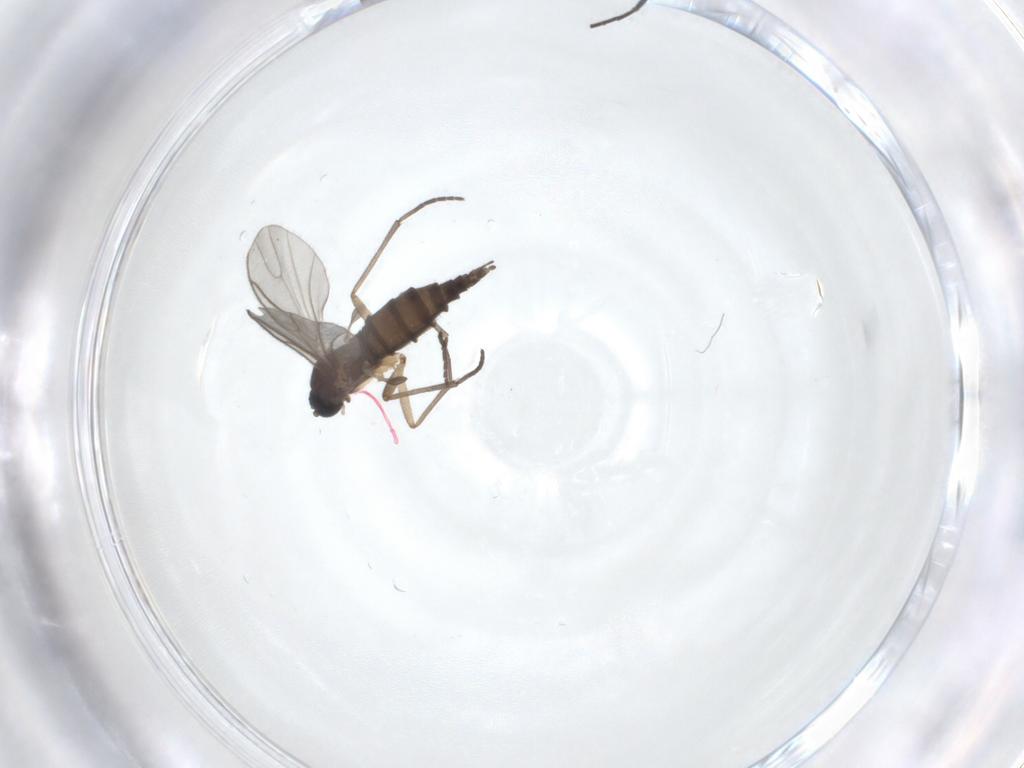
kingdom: Animalia
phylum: Arthropoda
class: Insecta
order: Diptera
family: Sciaridae
